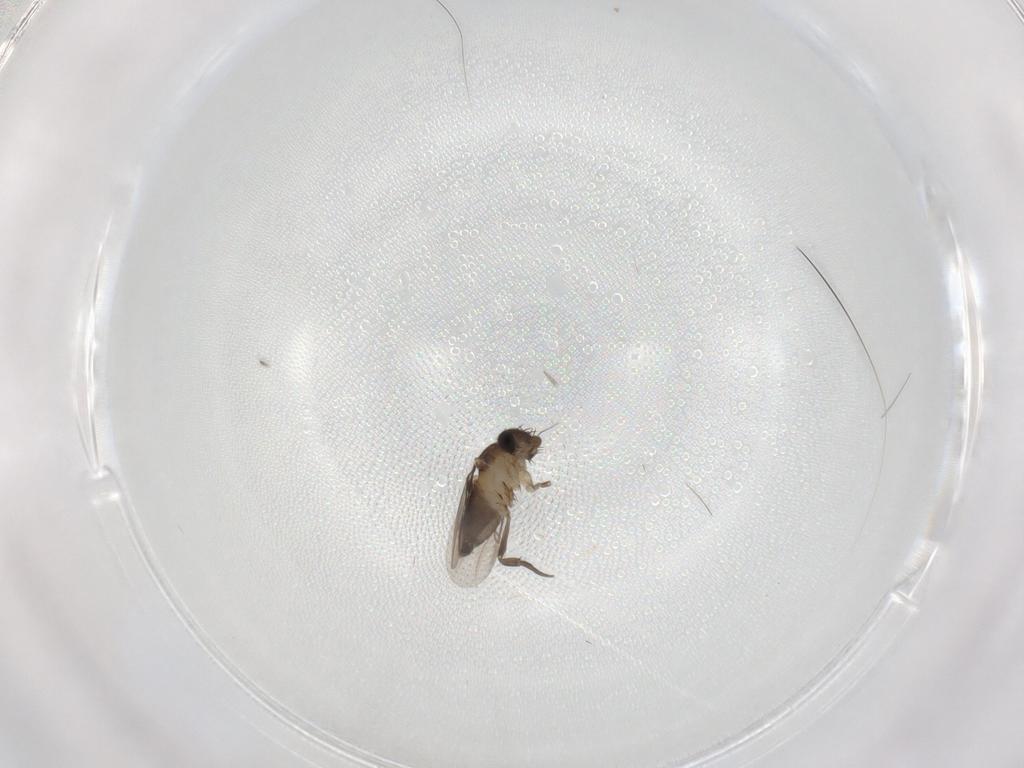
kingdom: Animalia
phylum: Arthropoda
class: Insecta
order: Diptera
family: Phoridae
